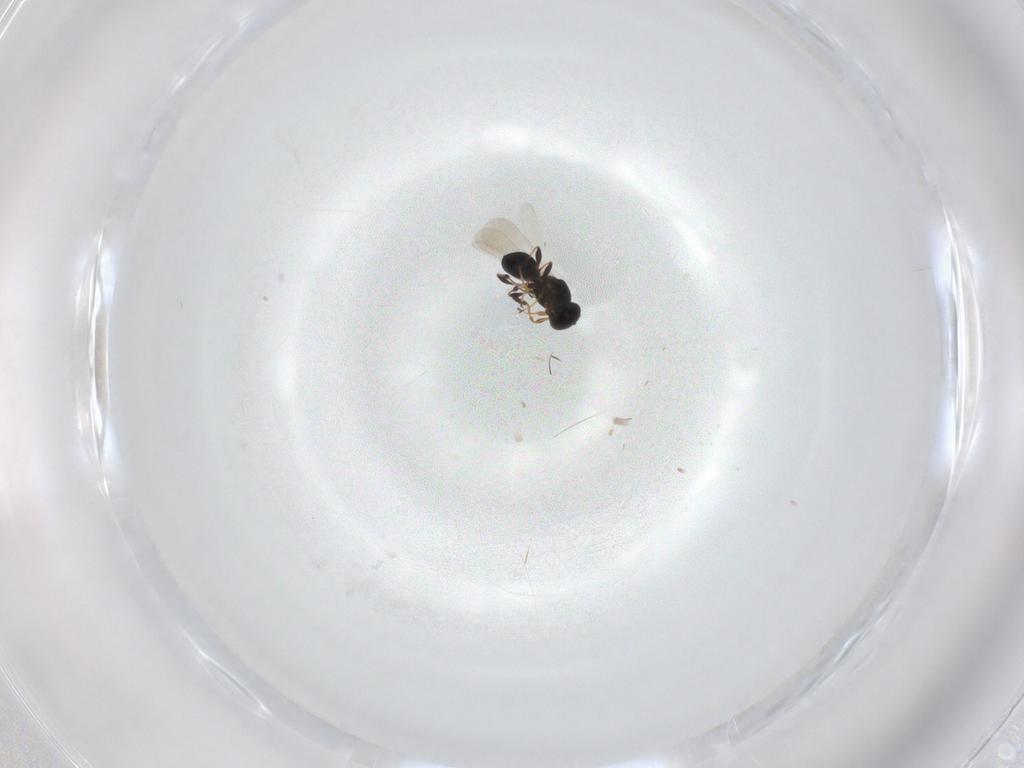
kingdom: Animalia
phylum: Arthropoda
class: Insecta
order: Hymenoptera
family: Platygastridae
